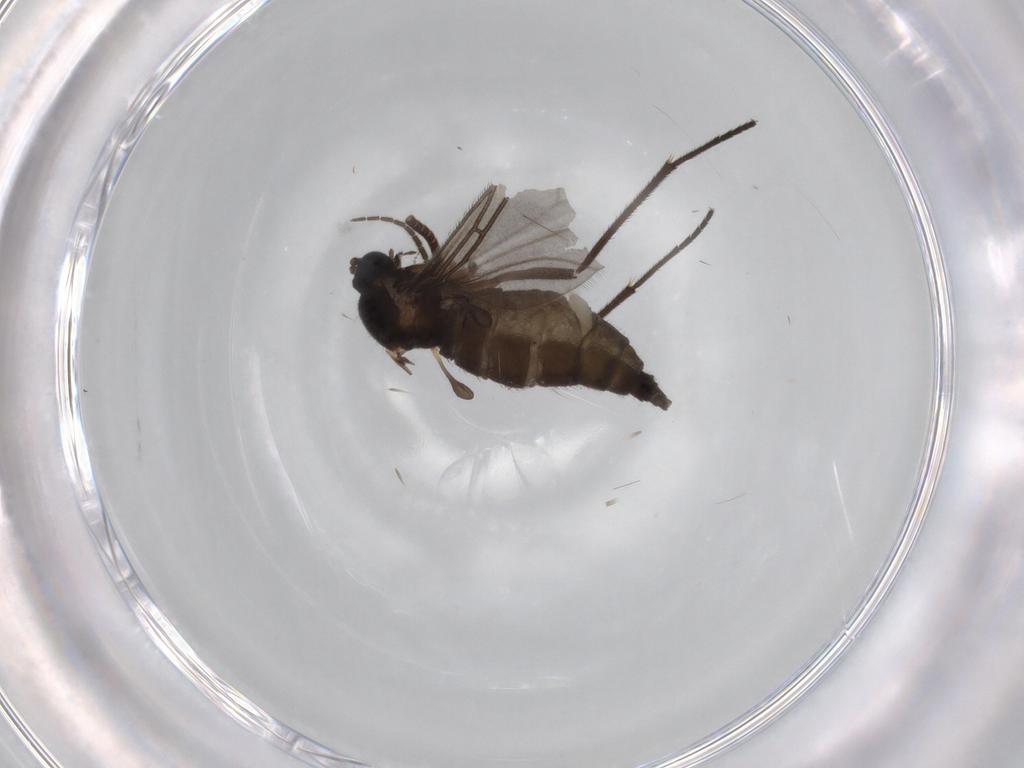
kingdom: Animalia
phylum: Arthropoda
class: Insecta
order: Diptera
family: Sciaridae
